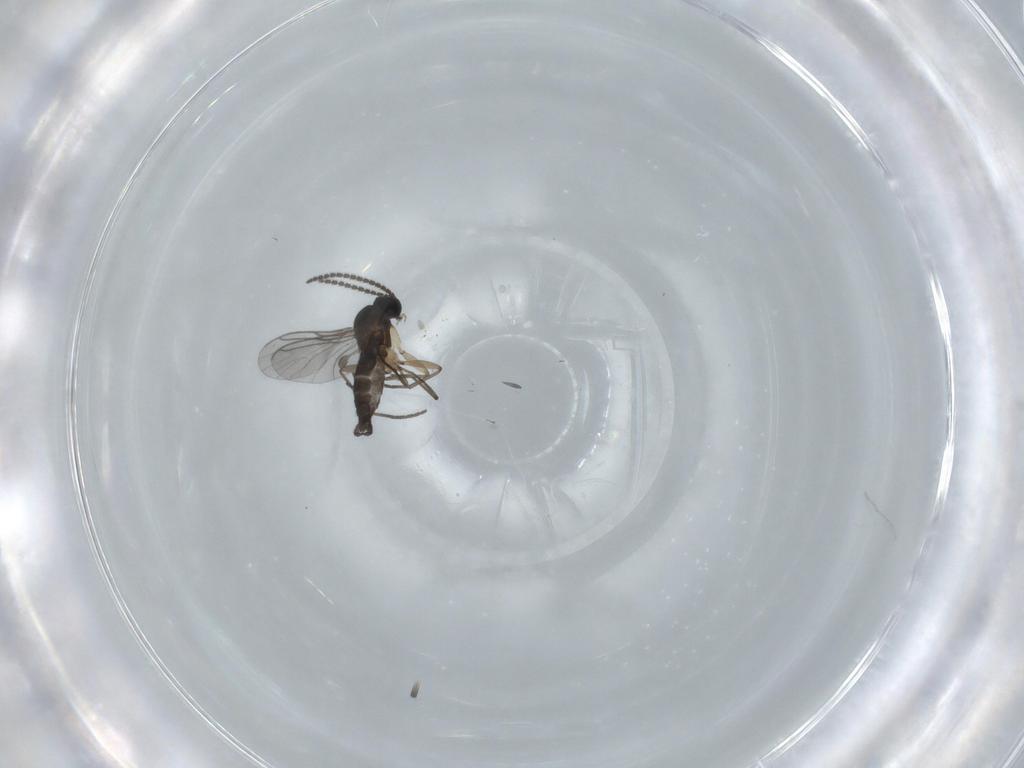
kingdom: Animalia
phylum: Arthropoda
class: Insecta
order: Diptera
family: Sciaridae
